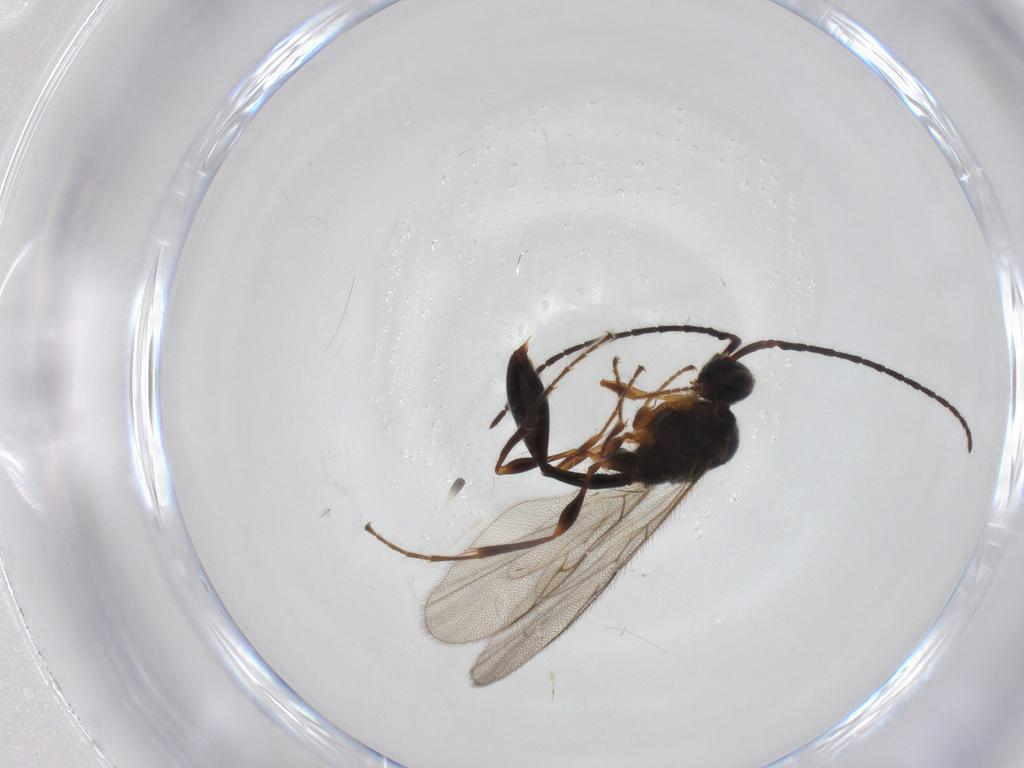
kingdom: Animalia
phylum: Arthropoda
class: Insecta
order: Hymenoptera
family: Diapriidae
